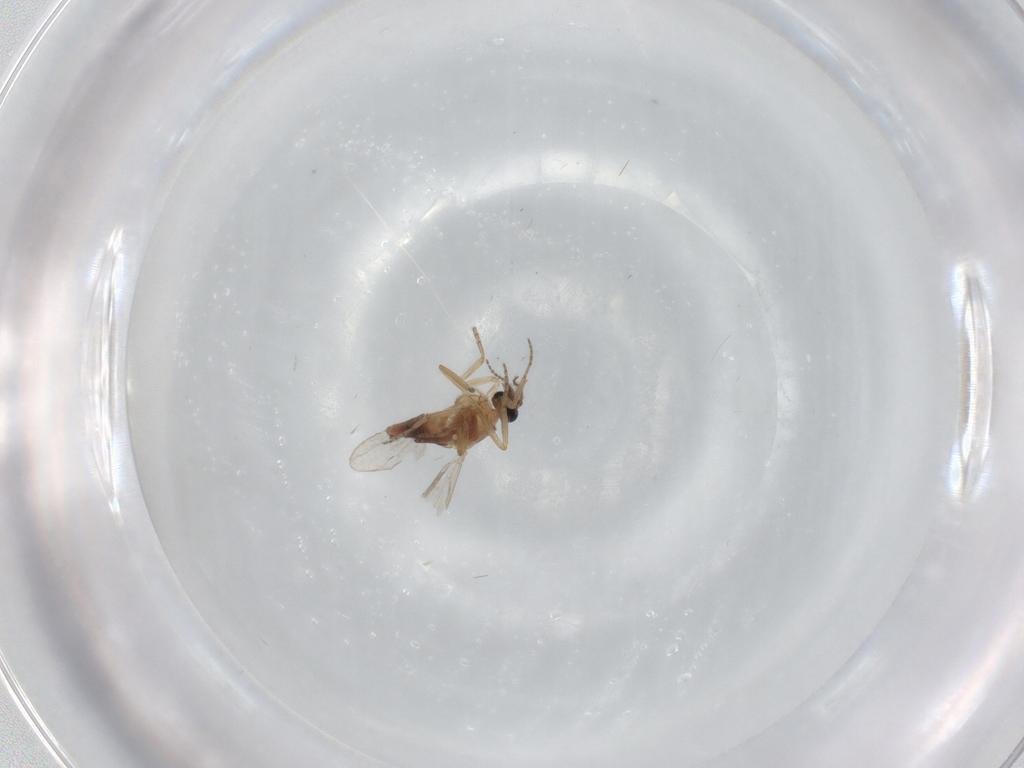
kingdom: Animalia
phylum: Arthropoda
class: Insecta
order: Diptera
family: Ceratopogonidae
